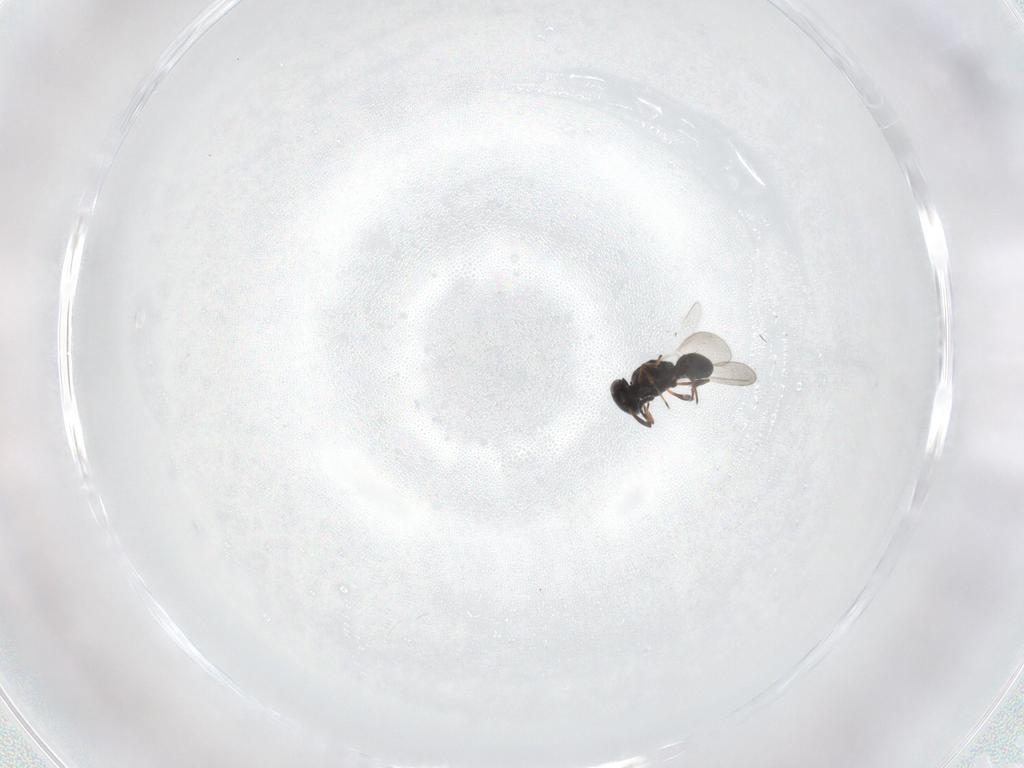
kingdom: Animalia
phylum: Arthropoda
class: Insecta
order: Hymenoptera
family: Platygastridae
